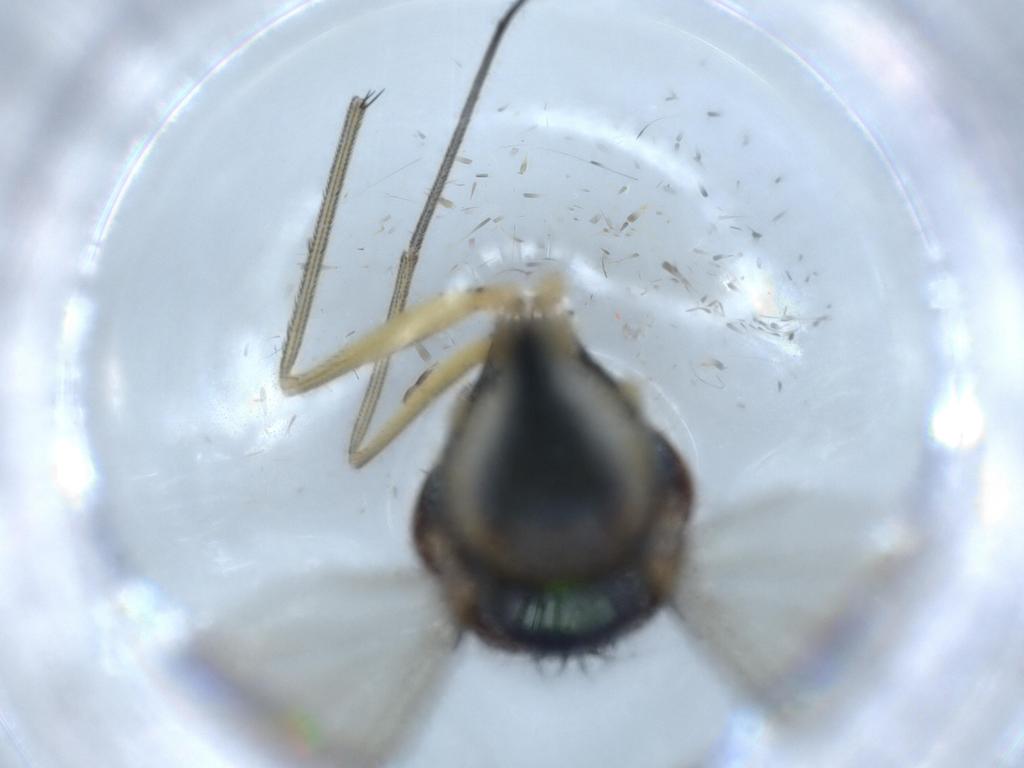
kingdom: Animalia
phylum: Arthropoda
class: Insecta
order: Diptera
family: Dolichopodidae
